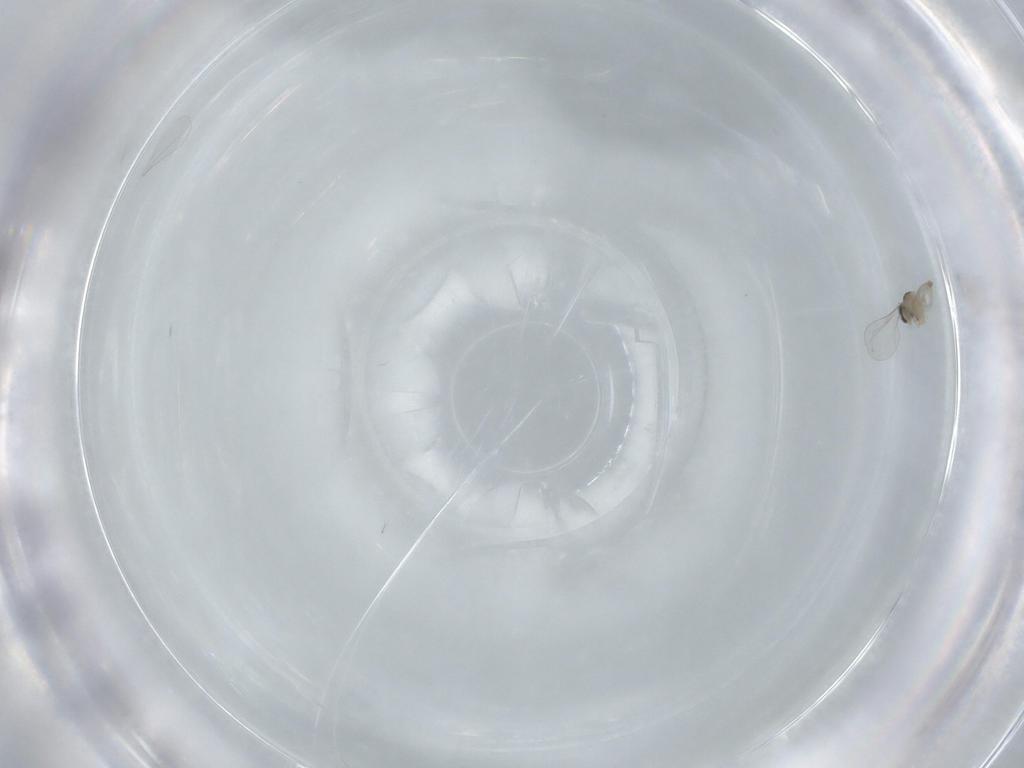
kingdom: Animalia
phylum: Arthropoda
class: Insecta
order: Diptera
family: Cecidomyiidae
